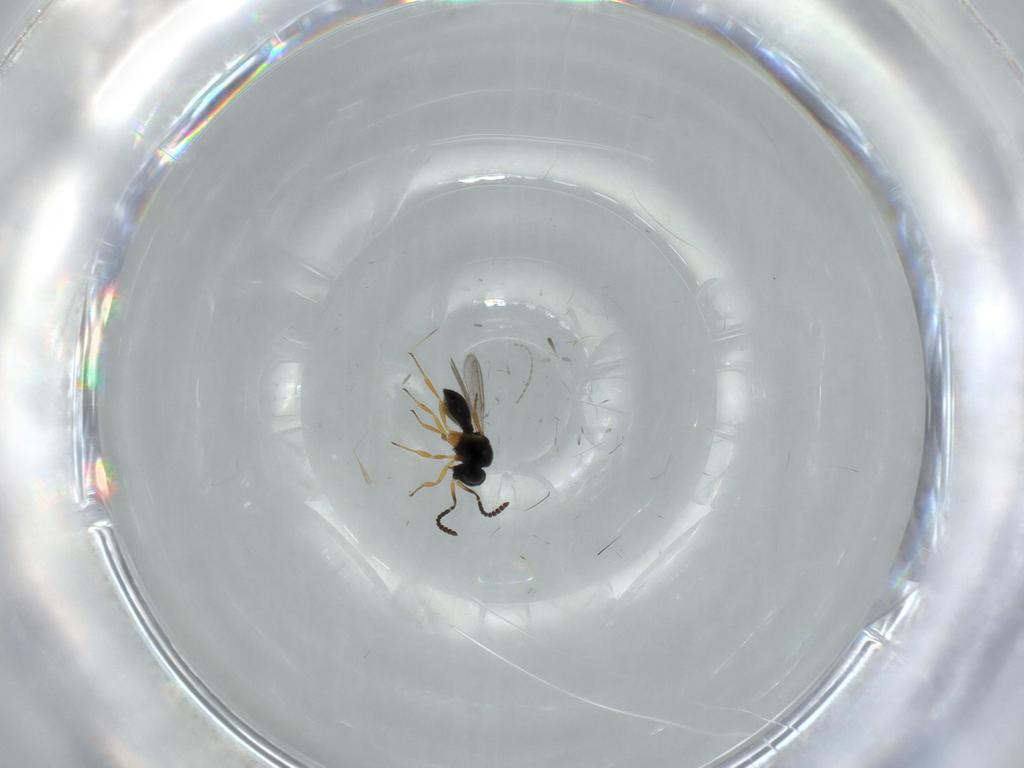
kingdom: Animalia
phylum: Arthropoda
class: Insecta
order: Hymenoptera
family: Scelionidae
